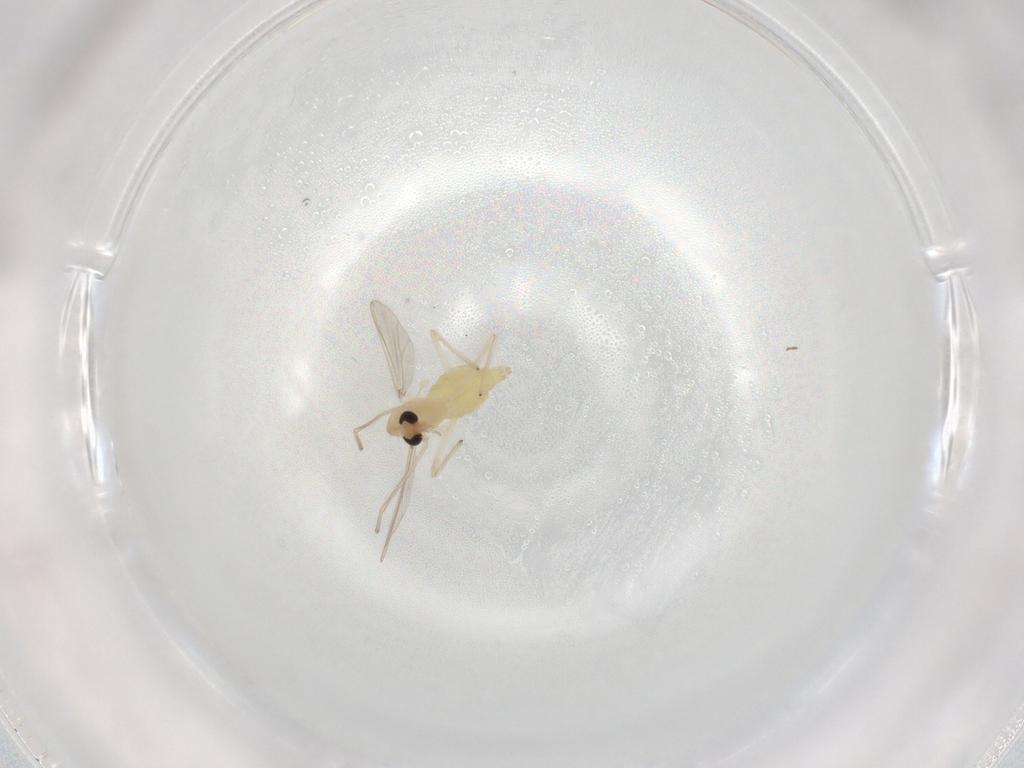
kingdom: Animalia
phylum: Arthropoda
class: Insecta
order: Diptera
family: Chironomidae
